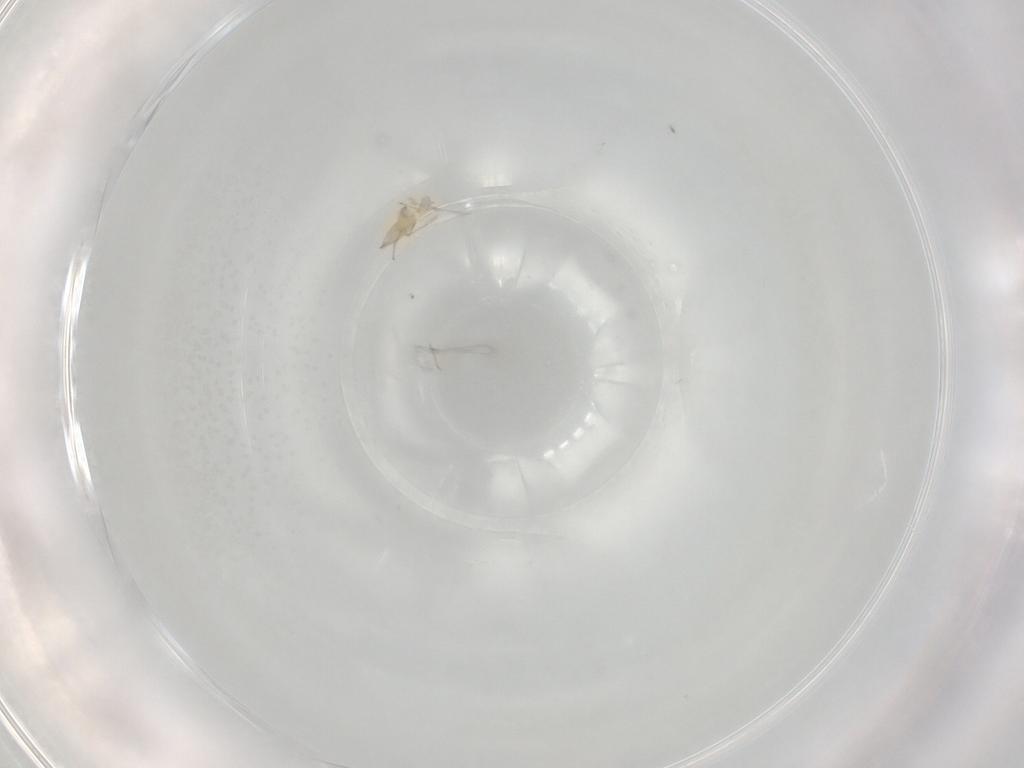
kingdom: Animalia
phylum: Arthropoda
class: Insecta
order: Hymenoptera
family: Mymaridae
